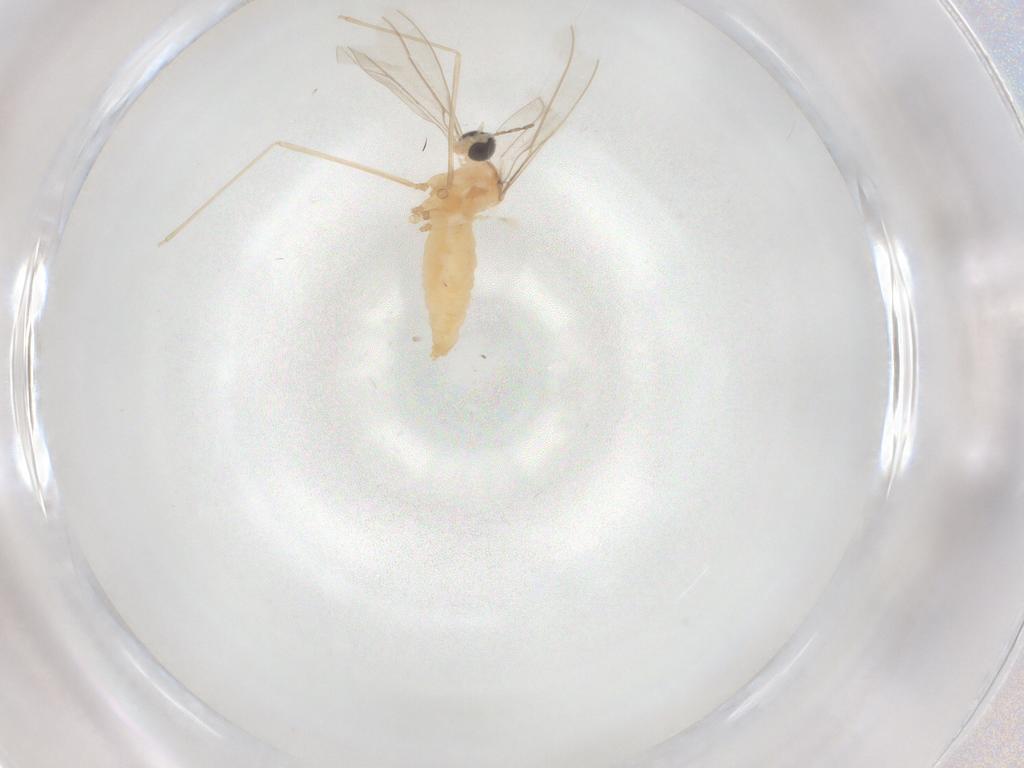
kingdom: Animalia
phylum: Arthropoda
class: Insecta
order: Diptera
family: Cecidomyiidae
